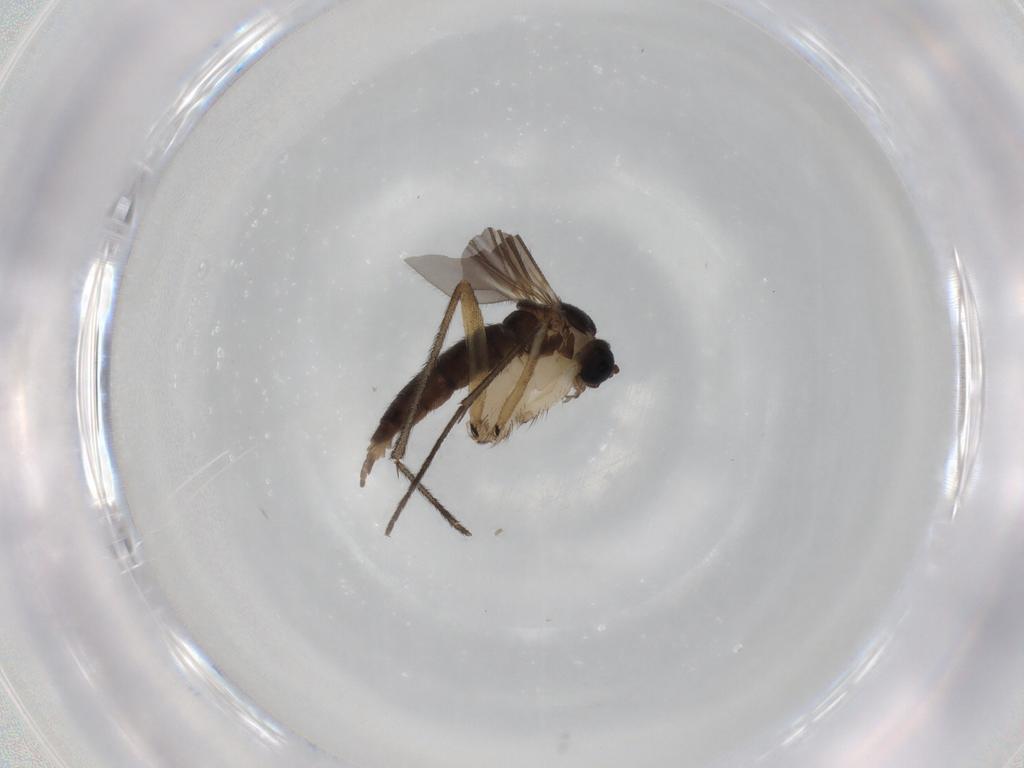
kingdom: Animalia
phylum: Arthropoda
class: Insecta
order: Diptera
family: Sciaridae
